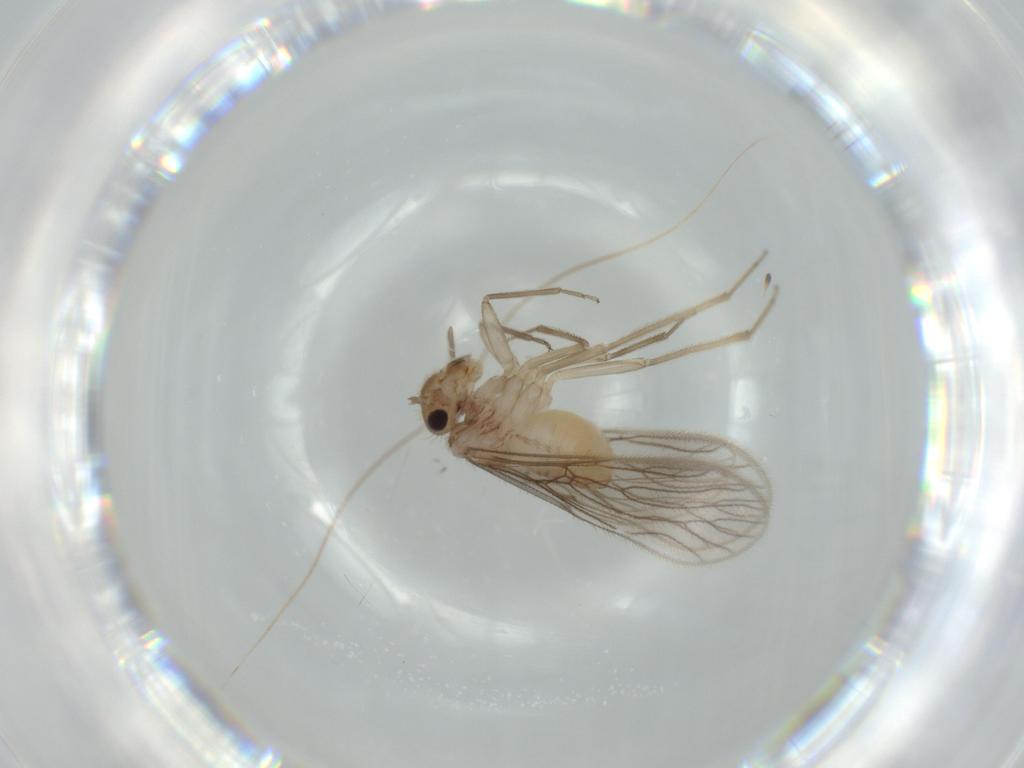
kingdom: Animalia
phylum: Arthropoda
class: Insecta
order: Psocodea
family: Cladiopsocidae
